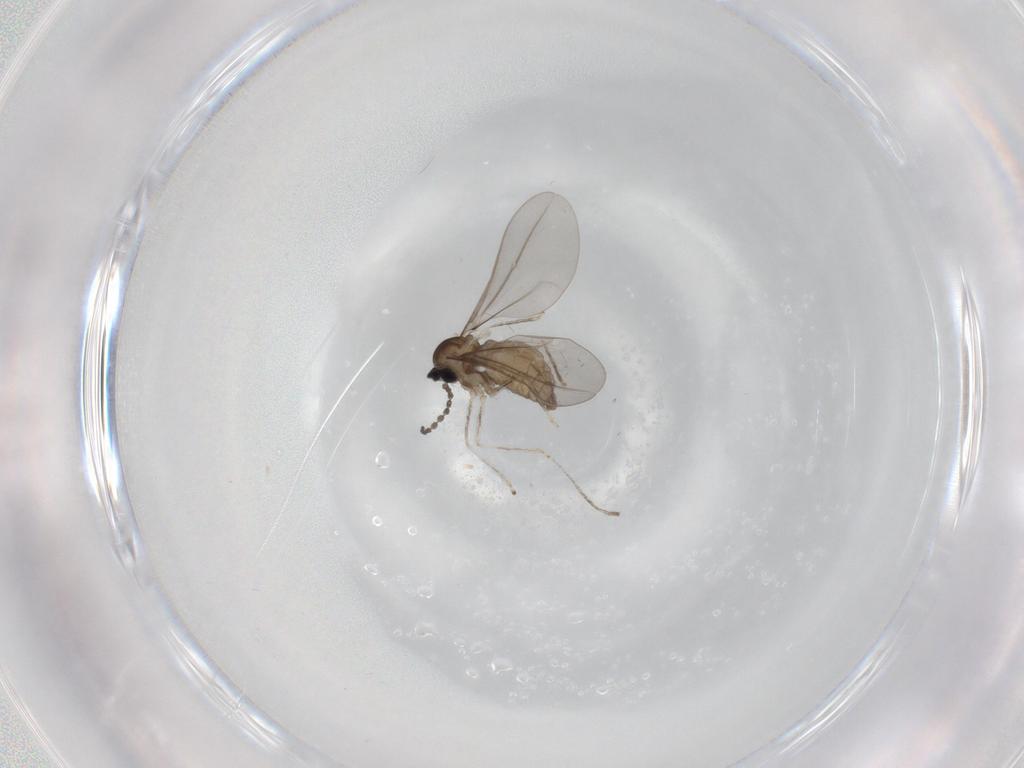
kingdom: Animalia
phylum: Arthropoda
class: Insecta
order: Diptera
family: Cecidomyiidae
